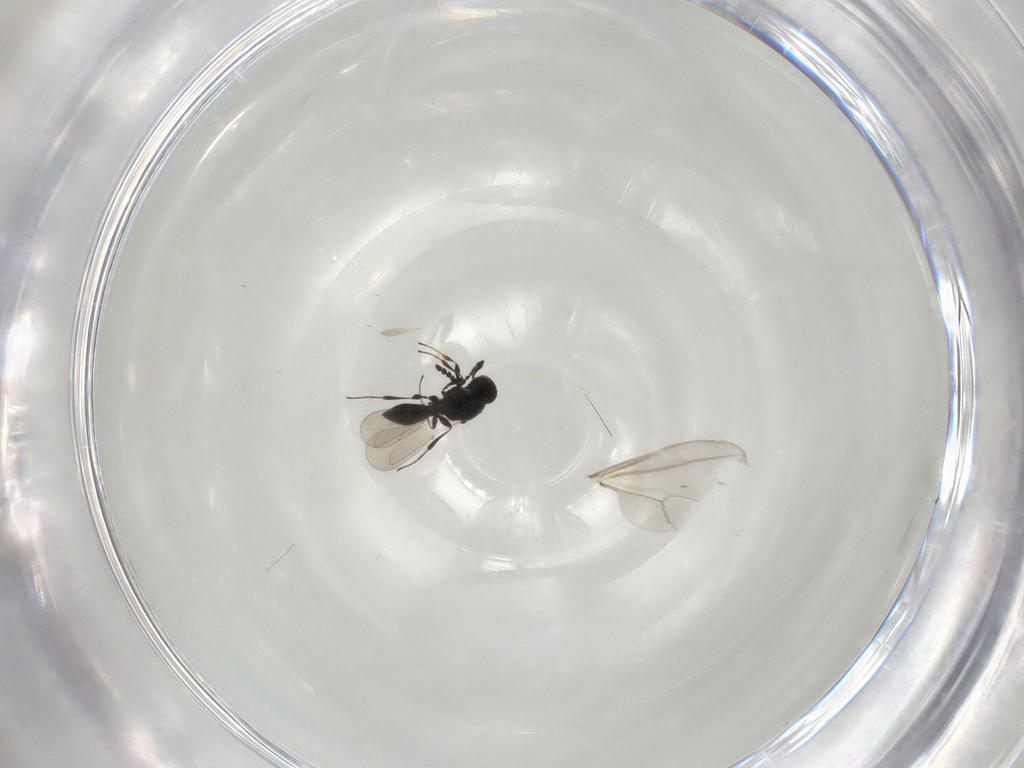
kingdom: Animalia
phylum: Arthropoda
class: Insecta
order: Hymenoptera
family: Platygastridae
